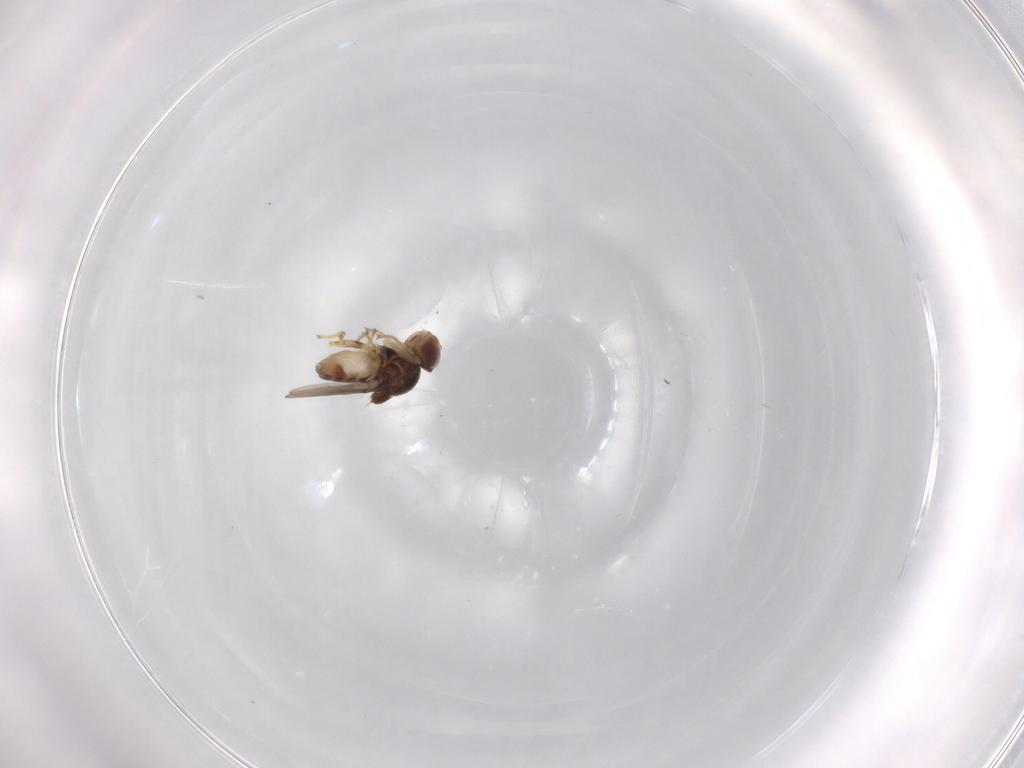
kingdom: Animalia
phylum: Arthropoda
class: Insecta
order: Diptera
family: Chloropidae
